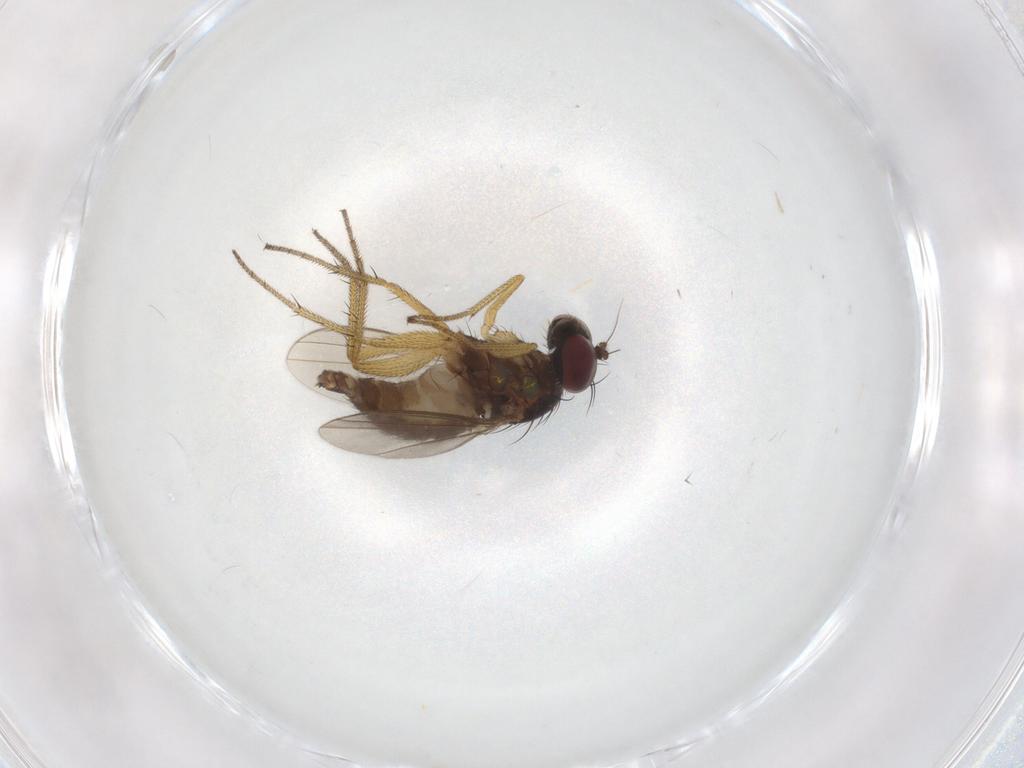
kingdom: Animalia
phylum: Arthropoda
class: Insecta
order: Diptera
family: Dolichopodidae
